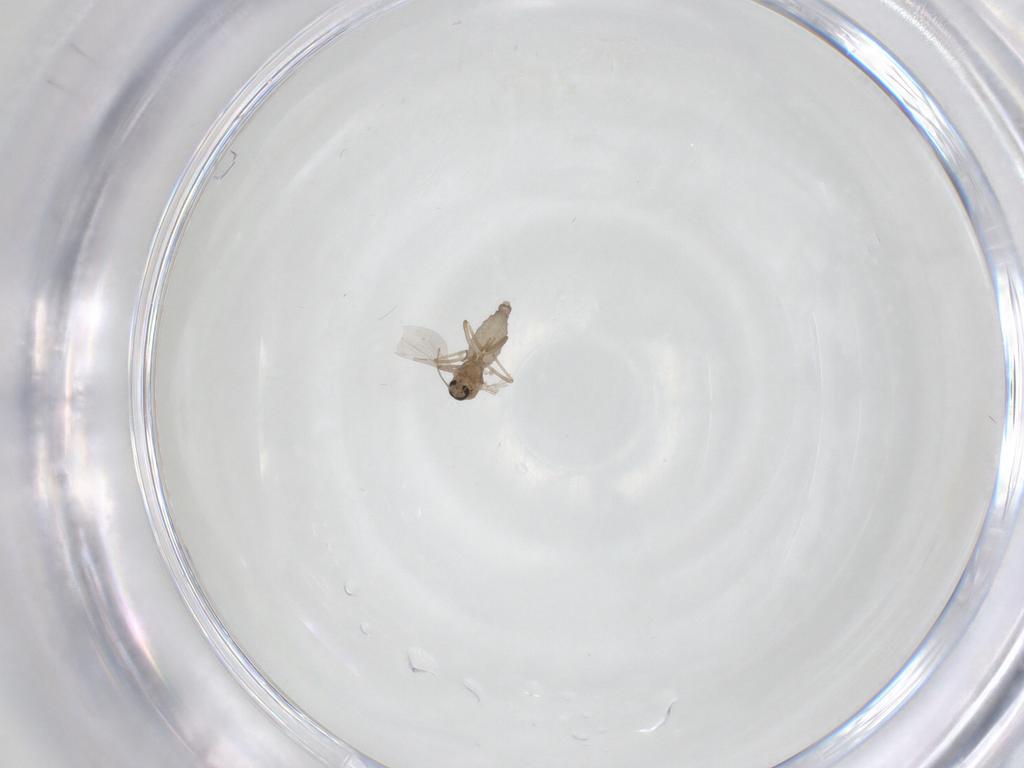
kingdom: Animalia
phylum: Arthropoda
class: Insecta
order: Diptera
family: Ceratopogonidae
